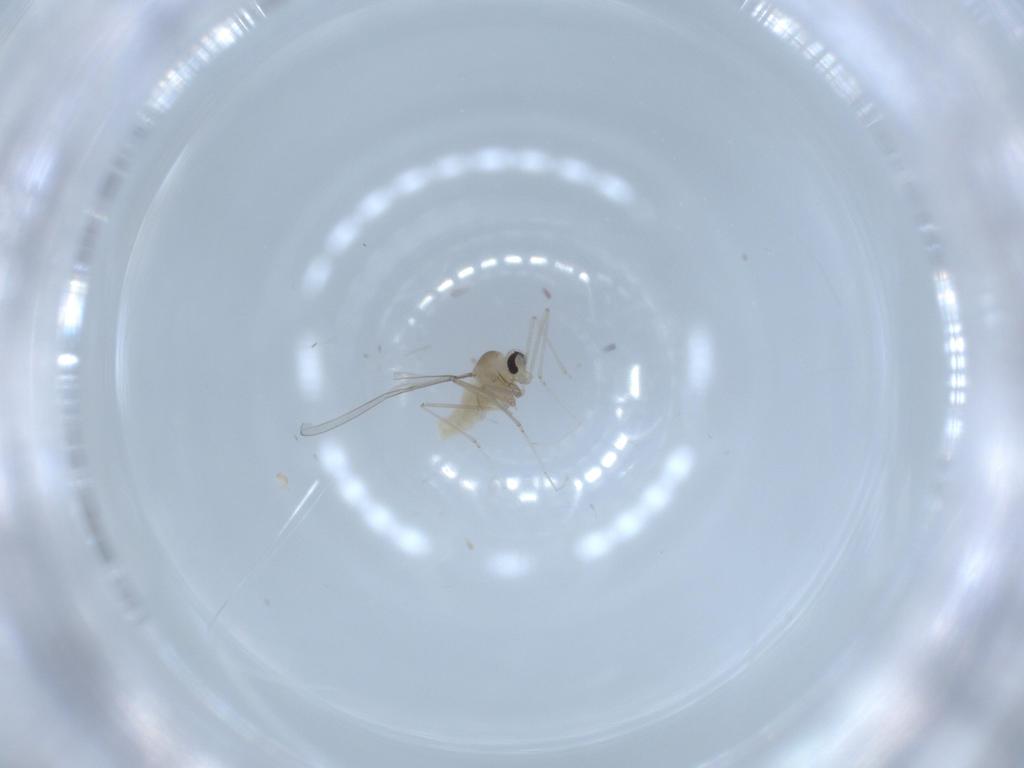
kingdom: Animalia
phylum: Arthropoda
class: Insecta
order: Diptera
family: Cecidomyiidae
